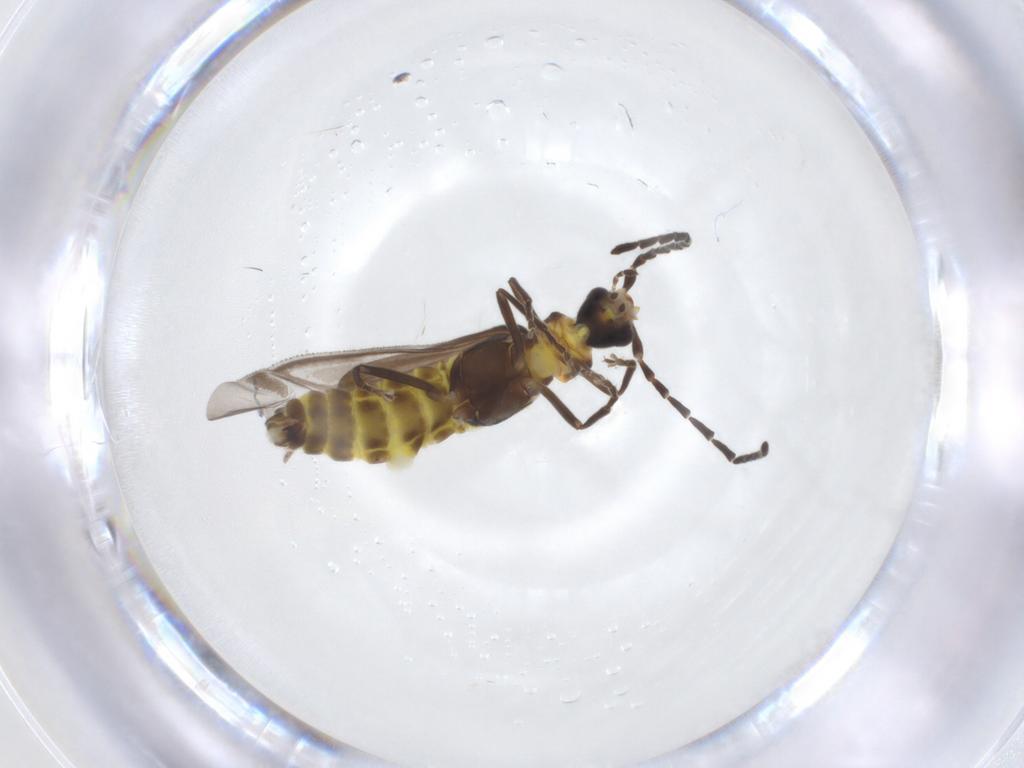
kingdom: Animalia
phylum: Arthropoda
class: Insecta
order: Coleoptera
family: Cantharidae
